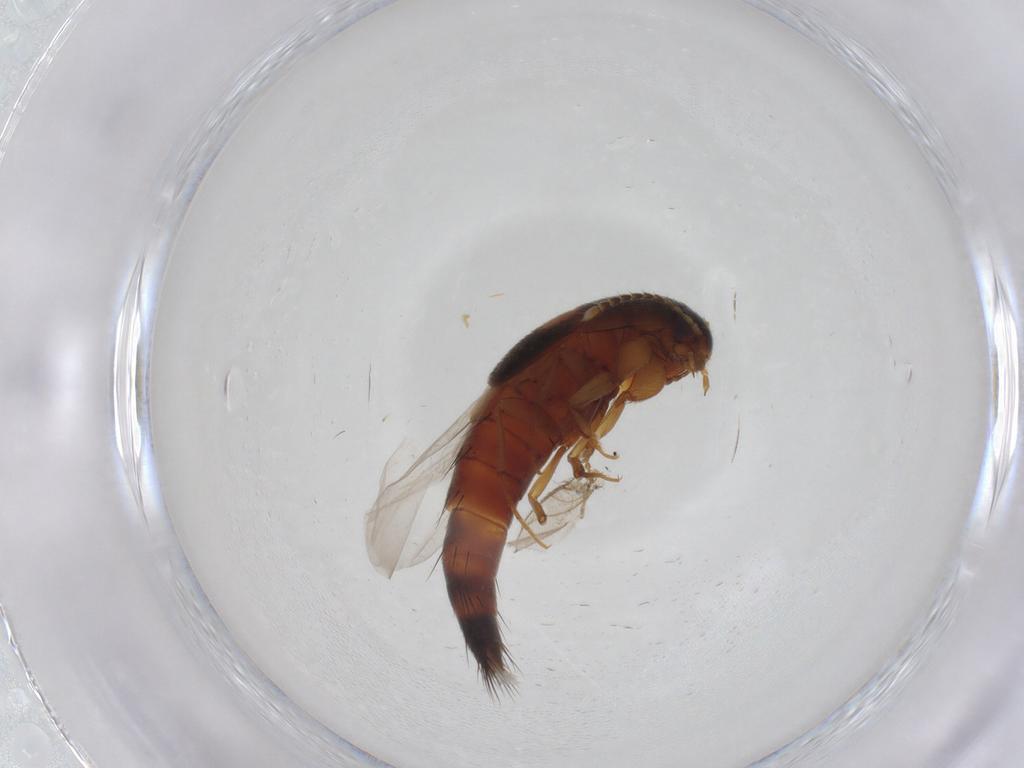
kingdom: Animalia
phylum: Arthropoda
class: Insecta
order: Coleoptera
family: Staphylinidae
